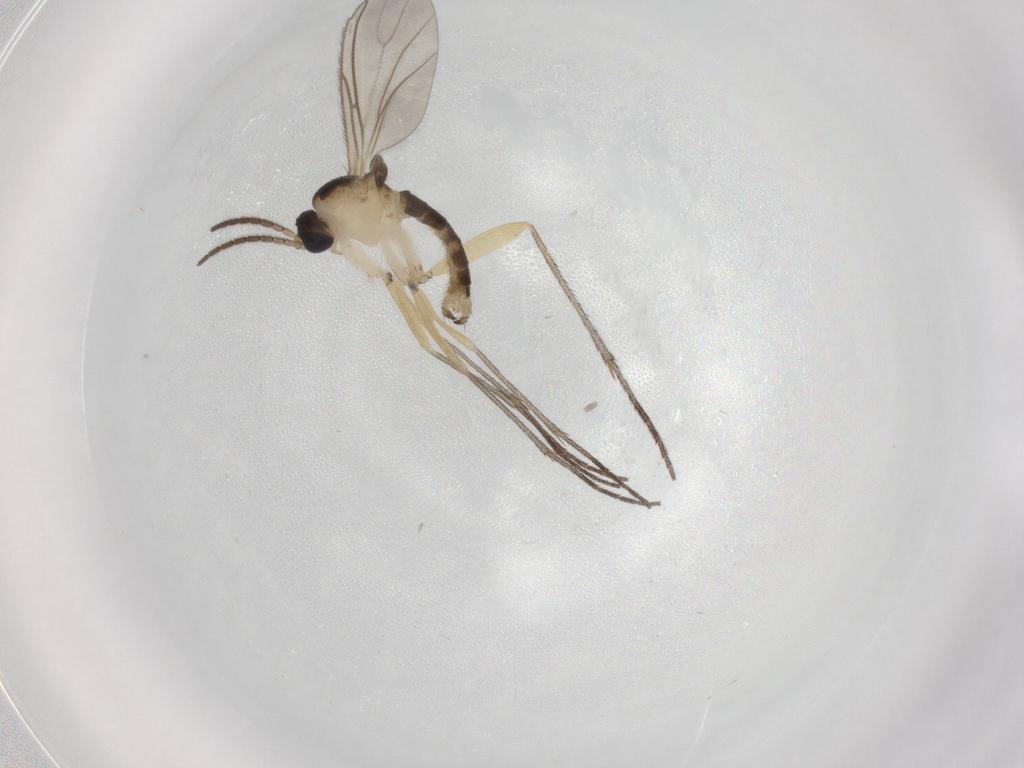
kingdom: Animalia
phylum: Arthropoda
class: Insecta
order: Diptera
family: Sciaridae
